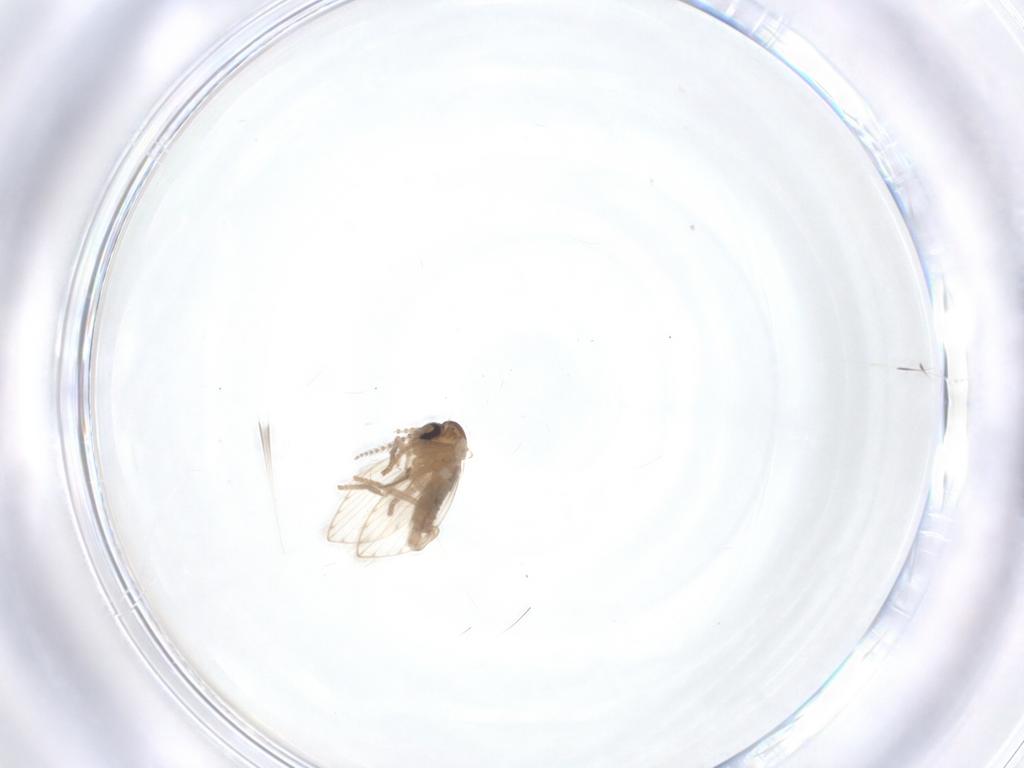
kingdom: Animalia
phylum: Arthropoda
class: Insecta
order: Diptera
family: Psychodidae
